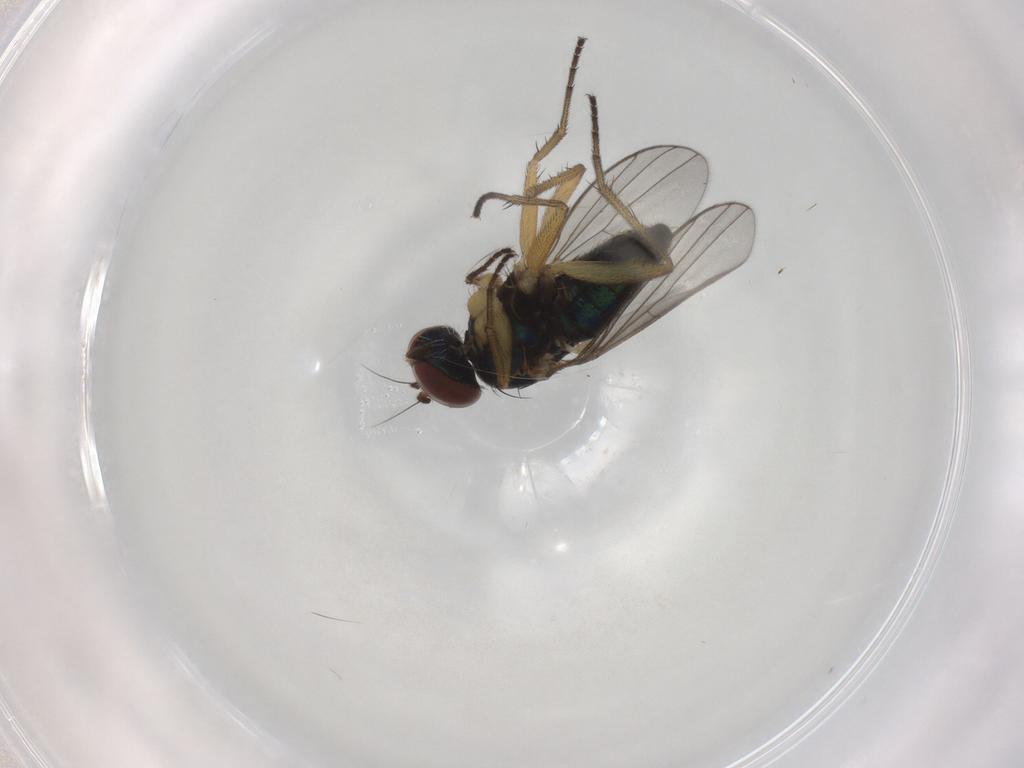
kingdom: Animalia
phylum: Arthropoda
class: Insecta
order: Diptera
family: Dolichopodidae
